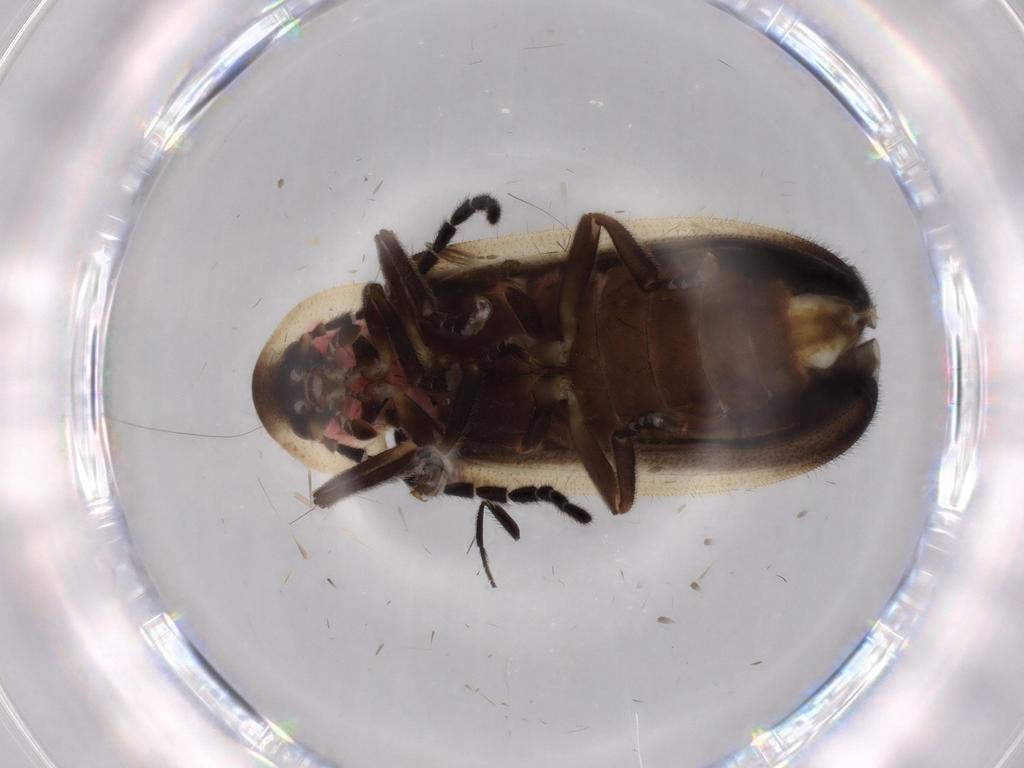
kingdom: Animalia
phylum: Arthropoda
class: Insecta
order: Coleoptera
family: Lampyridae
